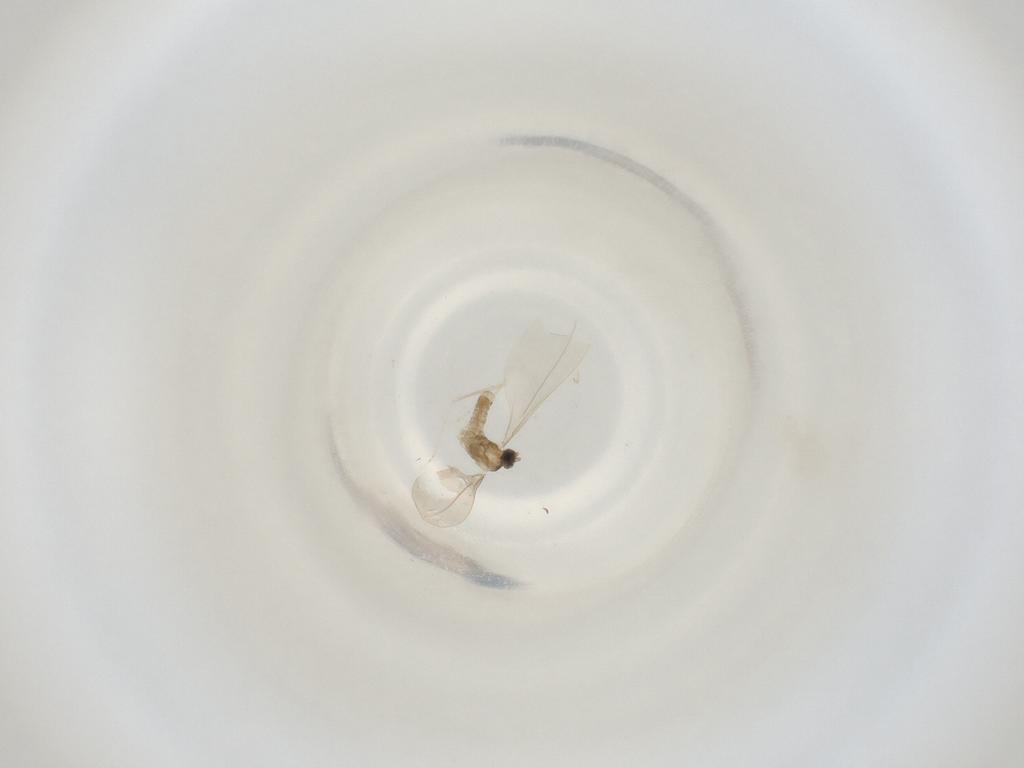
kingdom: Animalia
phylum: Arthropoda
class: Insecta
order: Diptera
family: Cecidomyiidae
